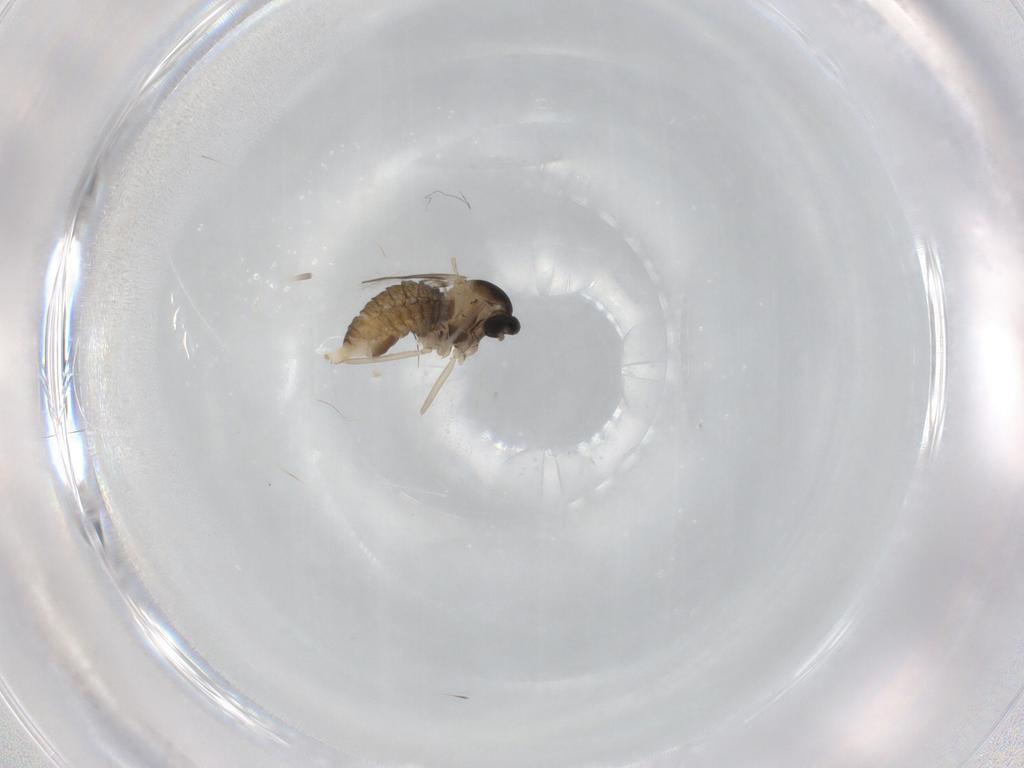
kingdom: Animalia
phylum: Arthropoda
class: Insecta
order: Diptera
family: Cecidomyiidae
